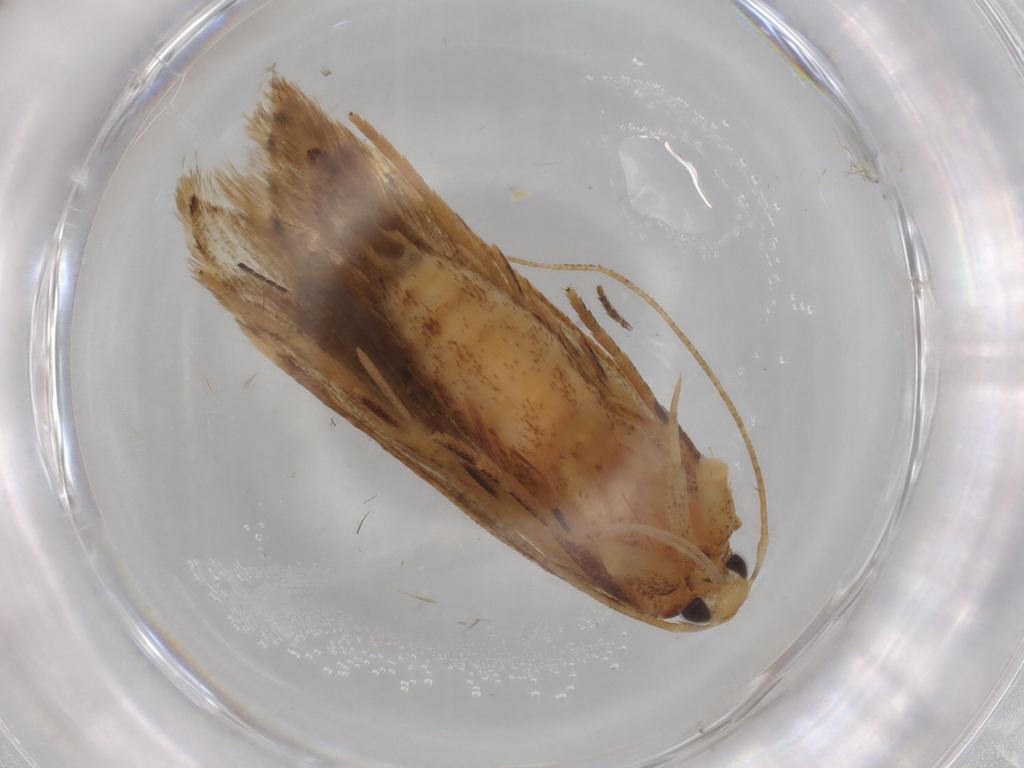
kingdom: Animalia
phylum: Arthropoda
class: Insecta
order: Lepidoptera
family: Gelechiidae
